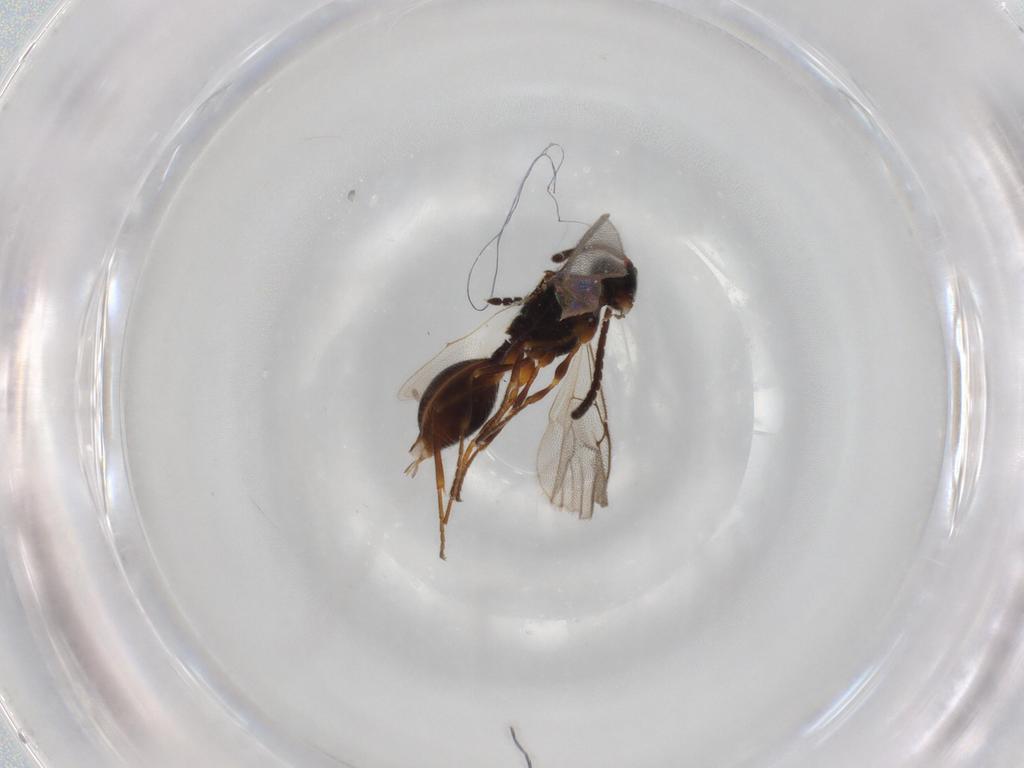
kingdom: Animalia
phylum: Arthropoda
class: Insecta
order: Hymenoptera
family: Diapriidae
